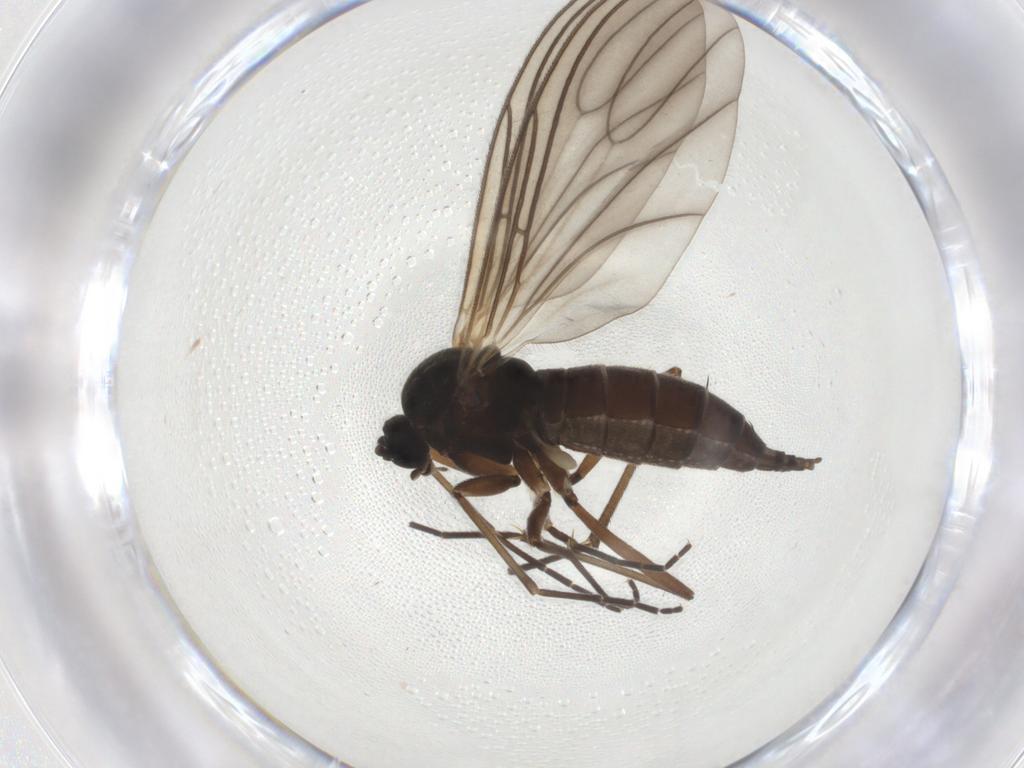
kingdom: Animalia
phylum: Arthropoda
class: Insecta
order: Diptera
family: Sciaridae
